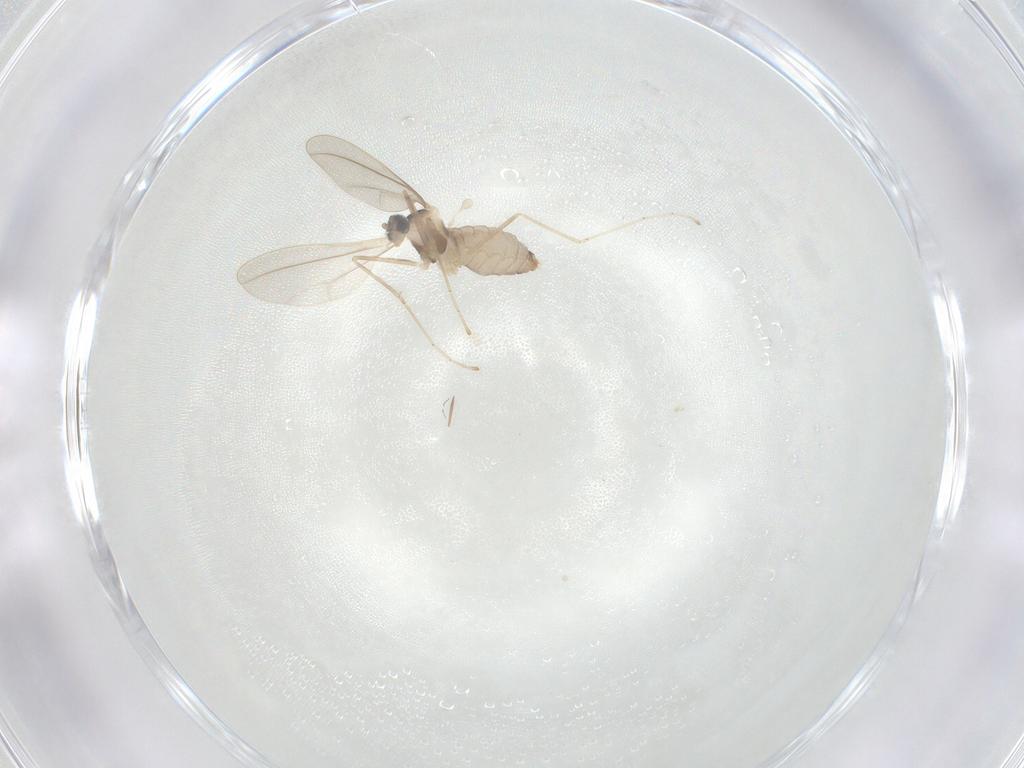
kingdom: Animalia
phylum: Arthropoda
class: Insecta
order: Diptera
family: Cecidomyiidae
